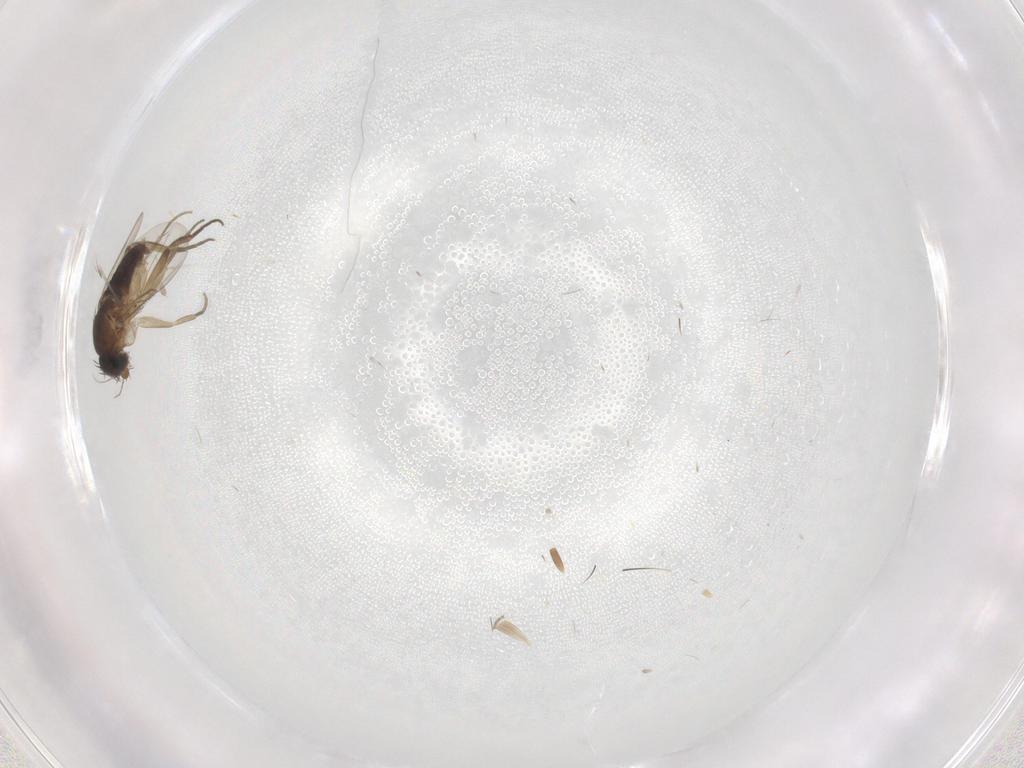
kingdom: Animalia
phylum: Arthropoda
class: Insecta
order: Diptera
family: Phoridae
